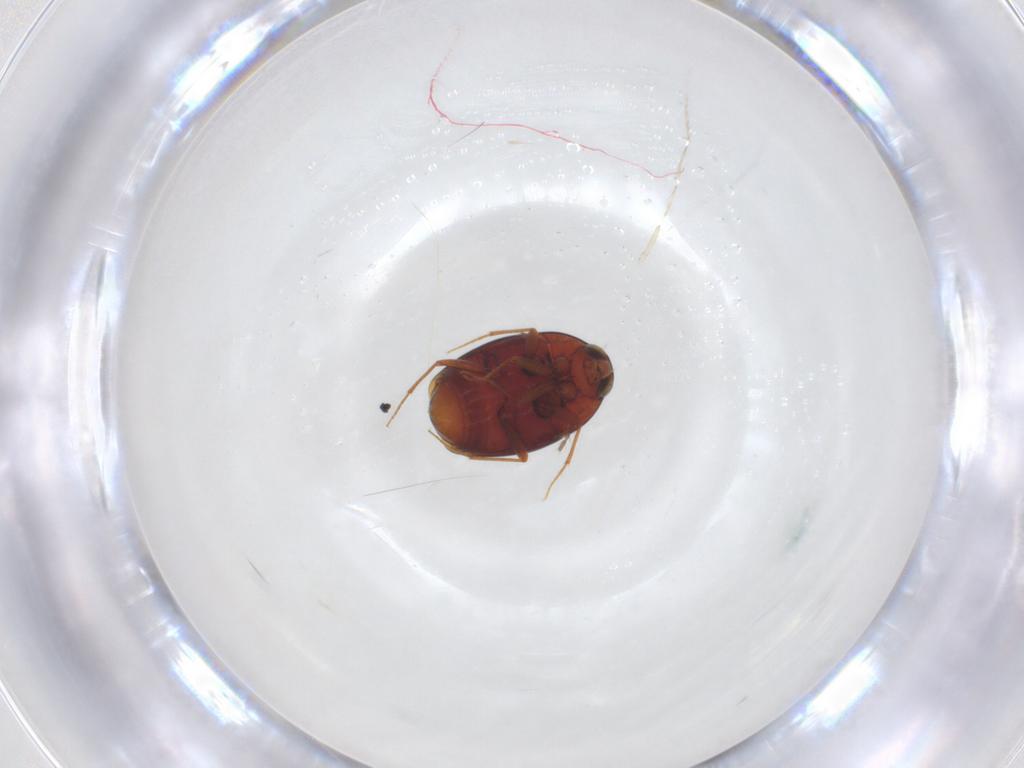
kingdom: Animalia
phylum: Arthropoda
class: Insecta
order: Coleoptera
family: Chrysomelidae
